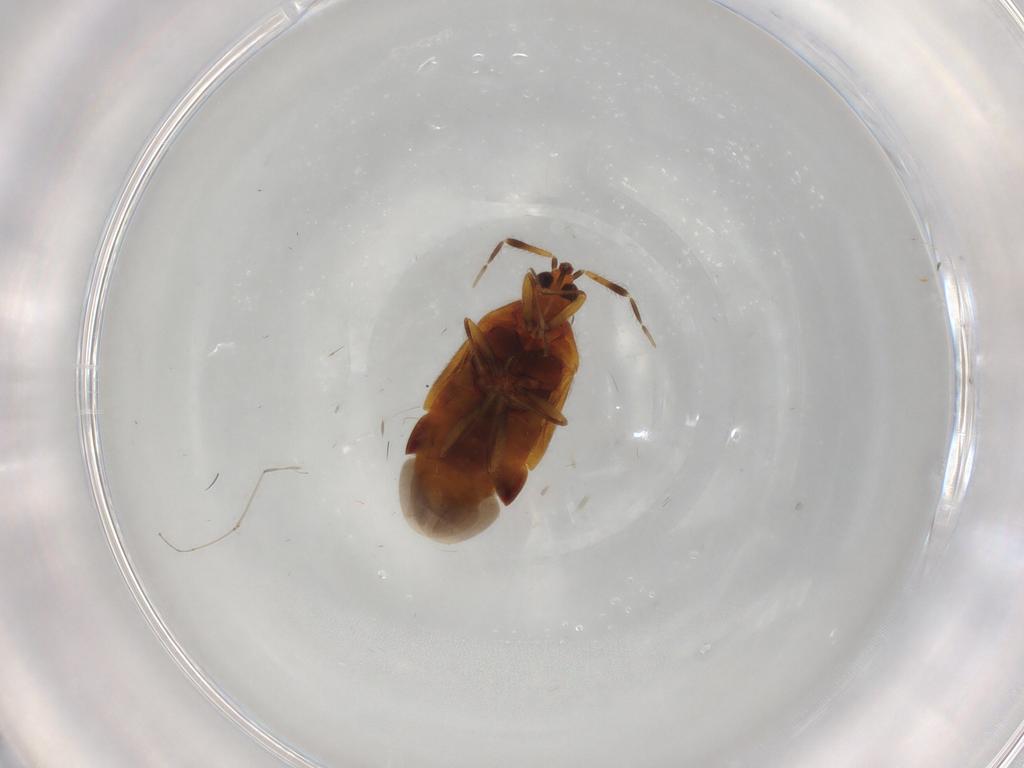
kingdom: Animalia
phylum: Arthropoda
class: Insecta
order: Hemiptera
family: Anthocoridae
